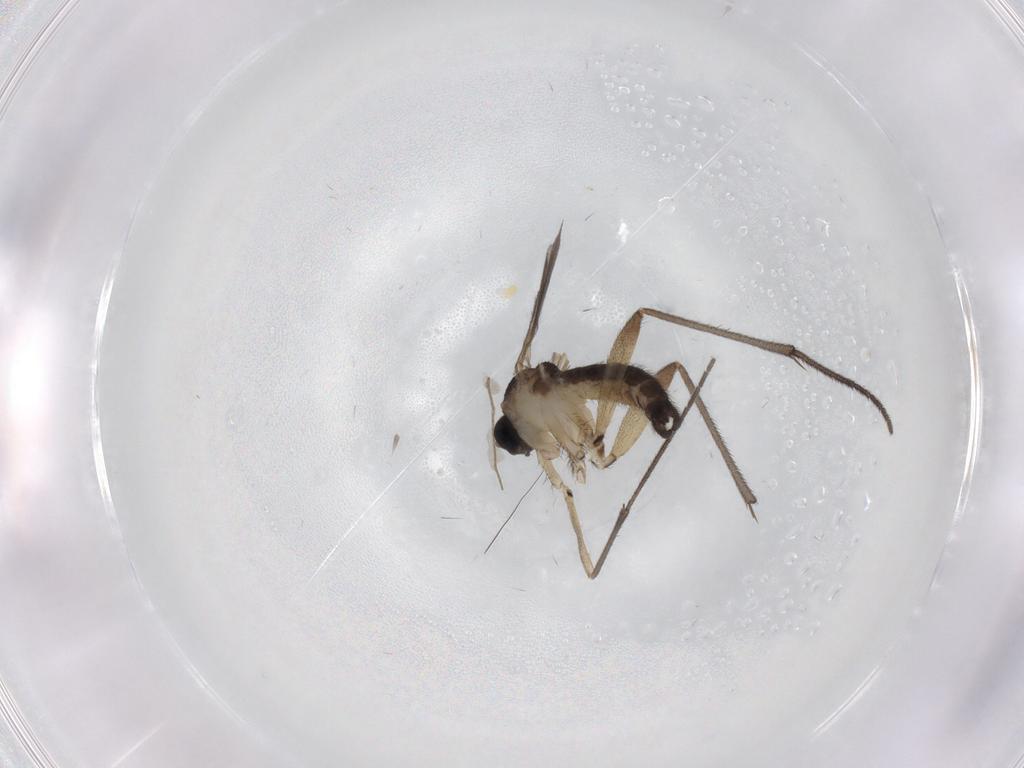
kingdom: Animalia
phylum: Arthropoda
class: Insecta
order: Diptera
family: Sciaridae
